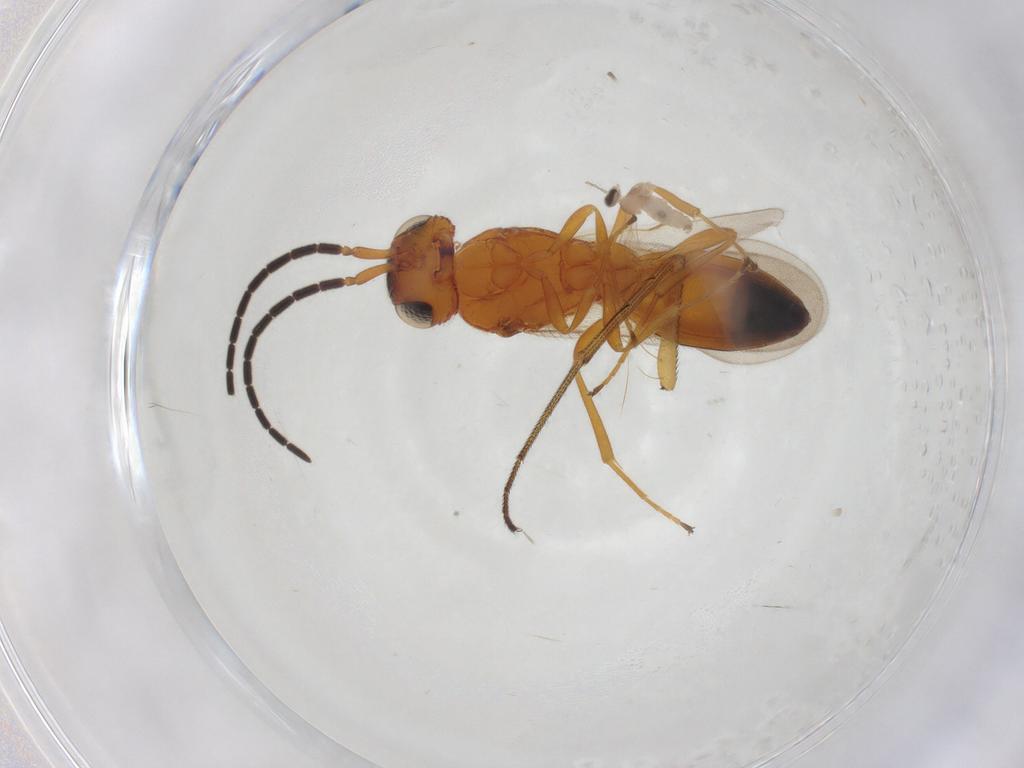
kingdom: Animalia
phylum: Arthropoda
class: Insecta
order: Diptera
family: Dolichopodidae
